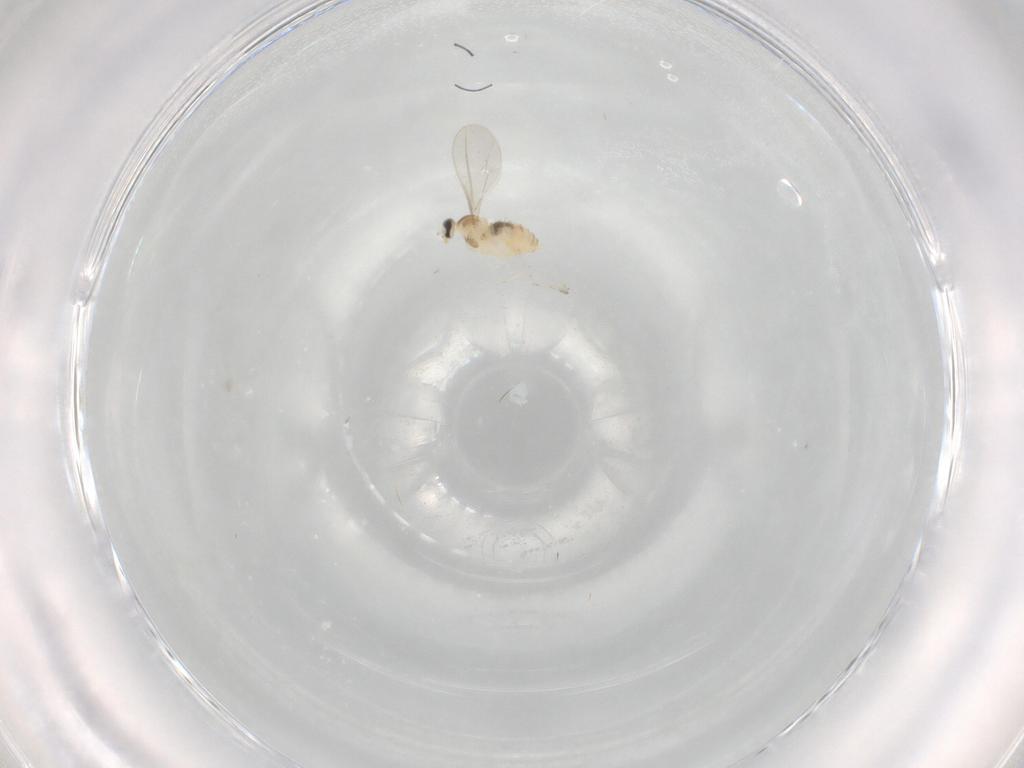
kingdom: Animalia
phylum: Arthropoda
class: Insecta
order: Diptera
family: Cecidomyiidae
